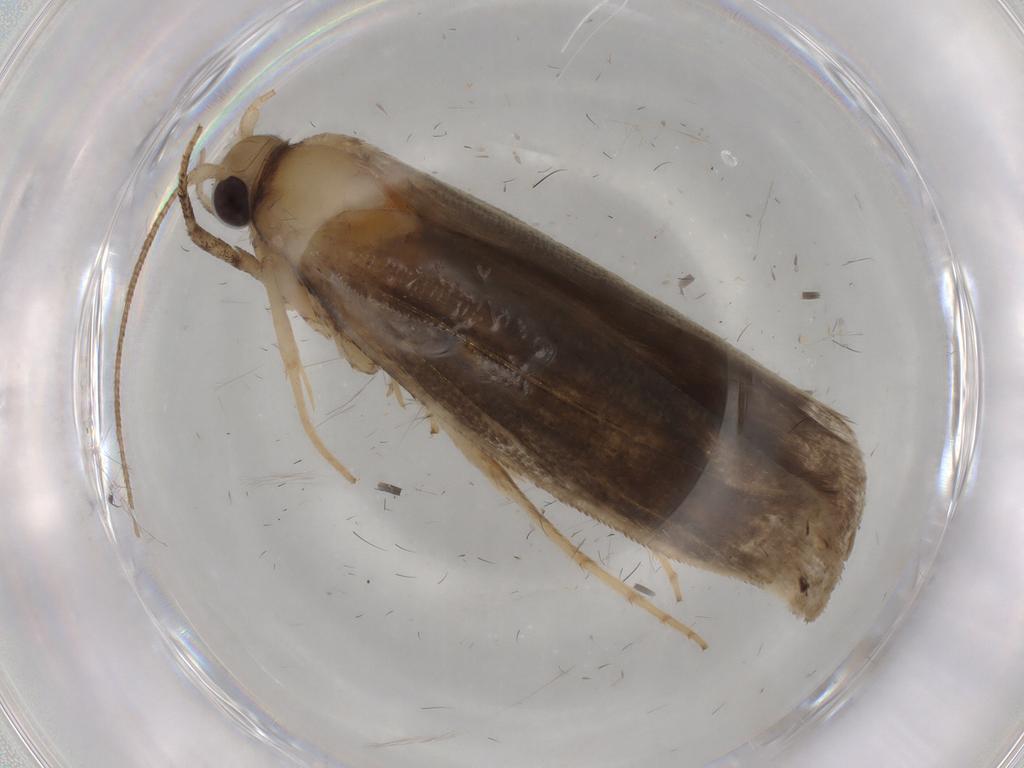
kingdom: Animalia
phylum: Arthropoda
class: Insecta
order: Lepidoptera
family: Yponomeutidae
